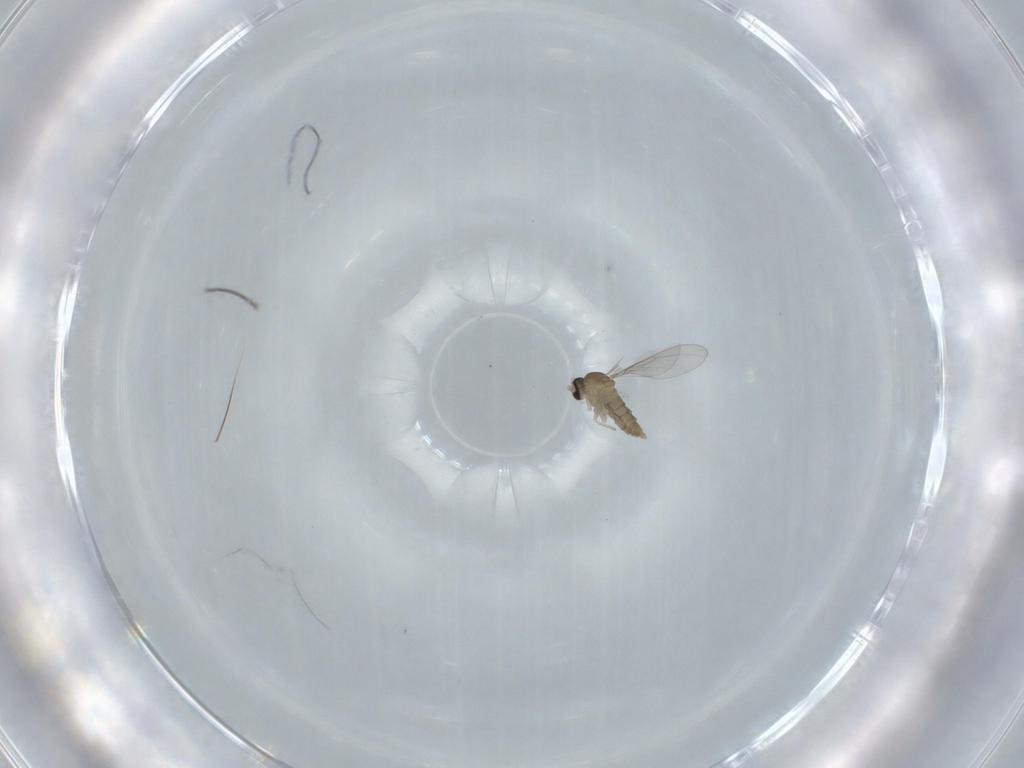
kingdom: Animalia
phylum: Arthropoda
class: Insecta
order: Diptera
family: Cecidomyiidae
